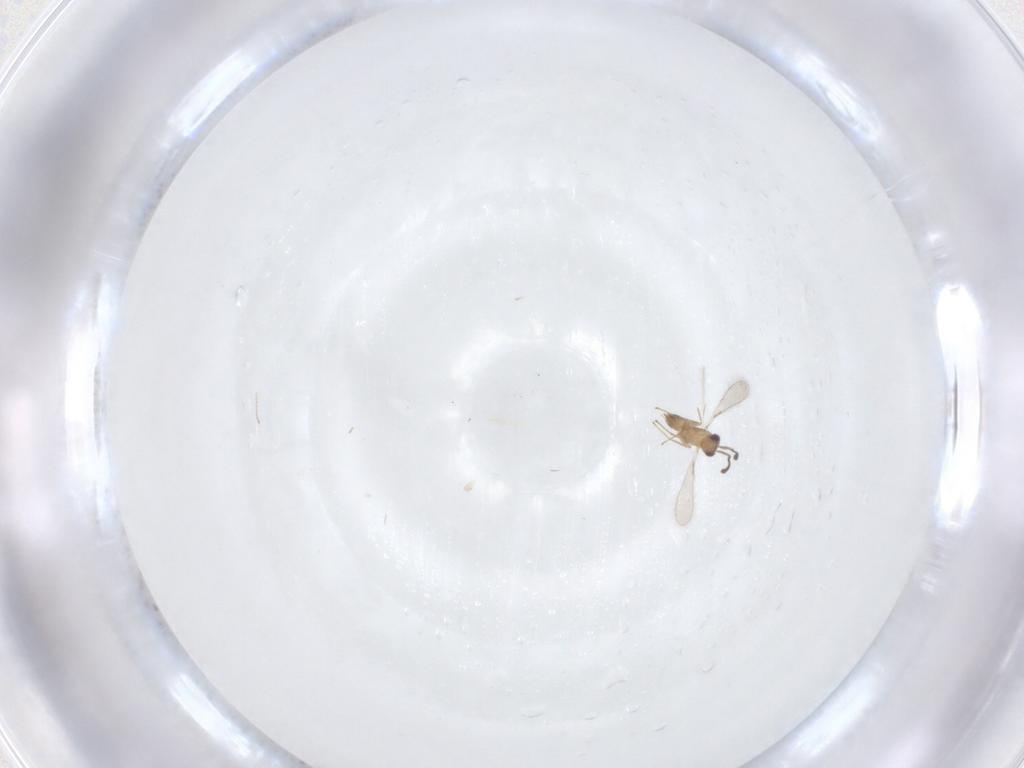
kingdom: Animalia
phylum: Arthropoda
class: Insecta
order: Hymenoptera
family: Mymaridae
